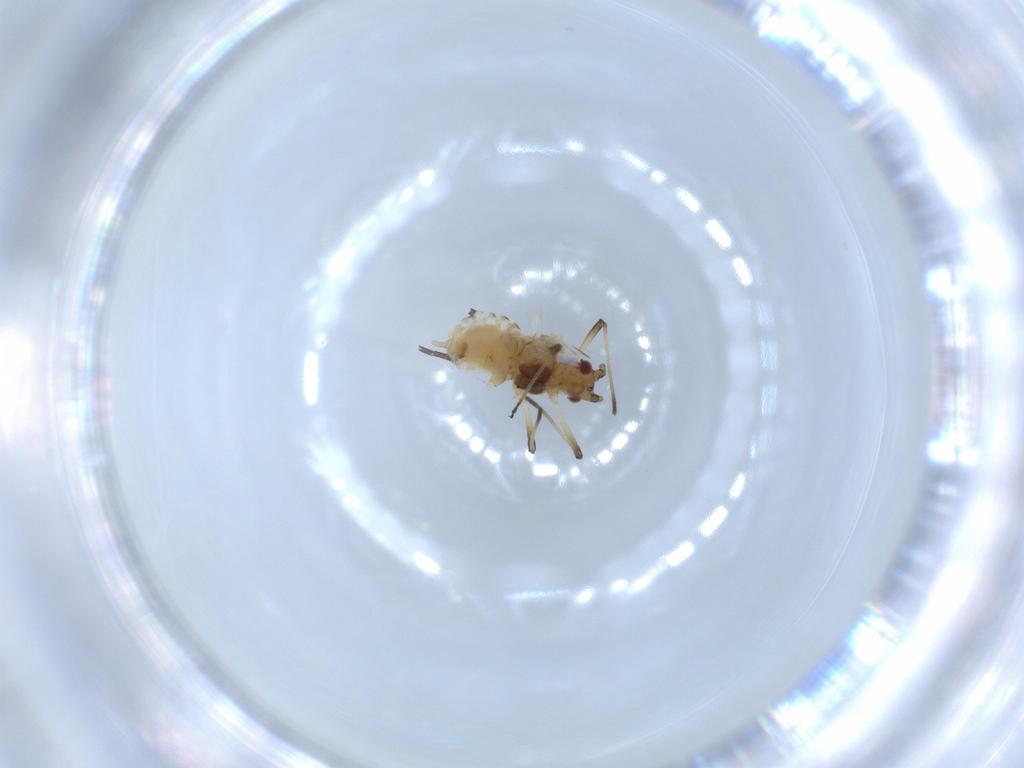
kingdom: Animalia
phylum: Arthropoda
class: Insecta
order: Hemiptera
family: Aphididae
